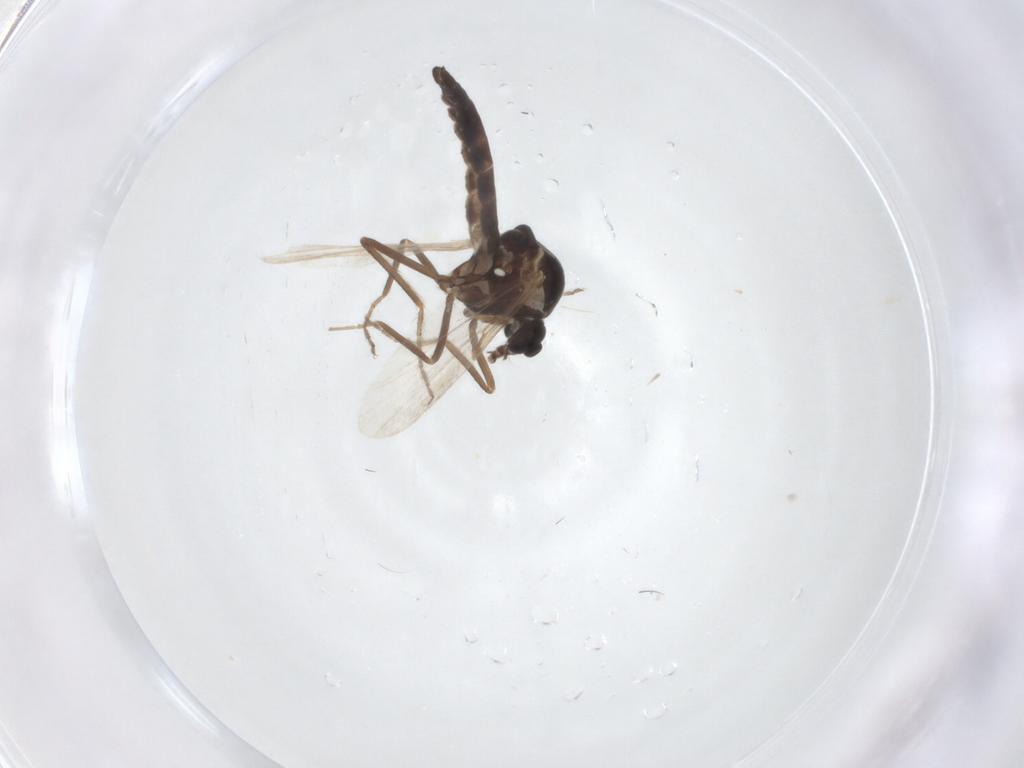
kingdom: Animalia
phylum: Arthropoda
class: Insecta
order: Diptera
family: Ceratopogonidae
